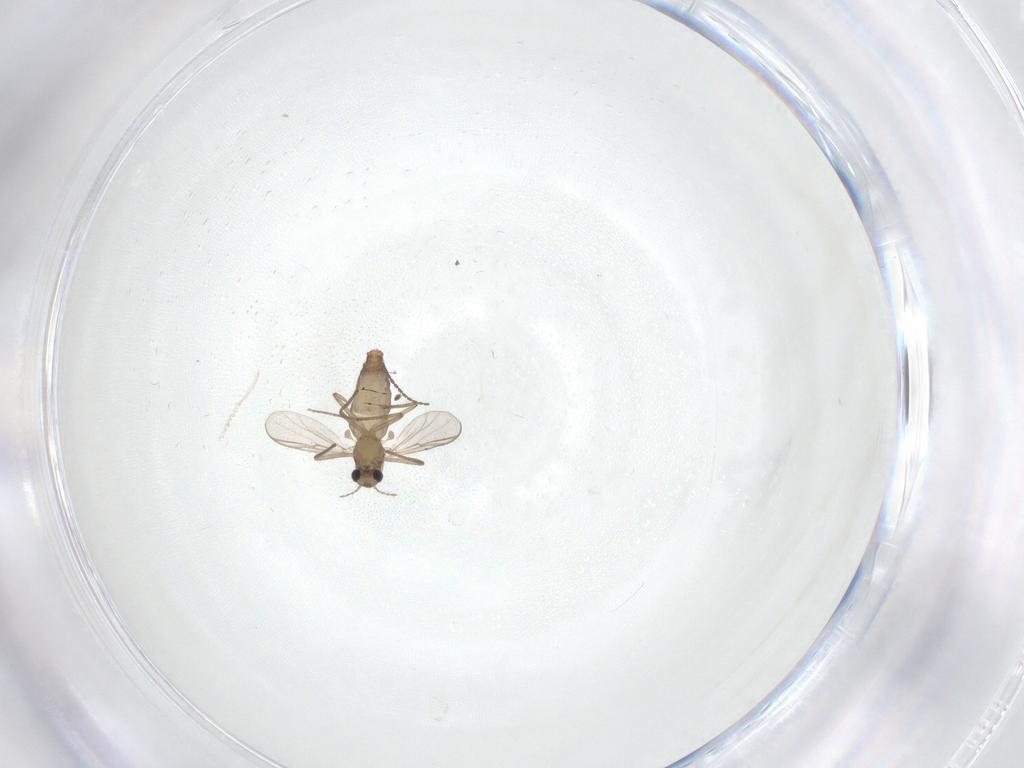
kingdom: Animalia
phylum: Arthropoda
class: Insecta
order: Diptera
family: Chironomidae
